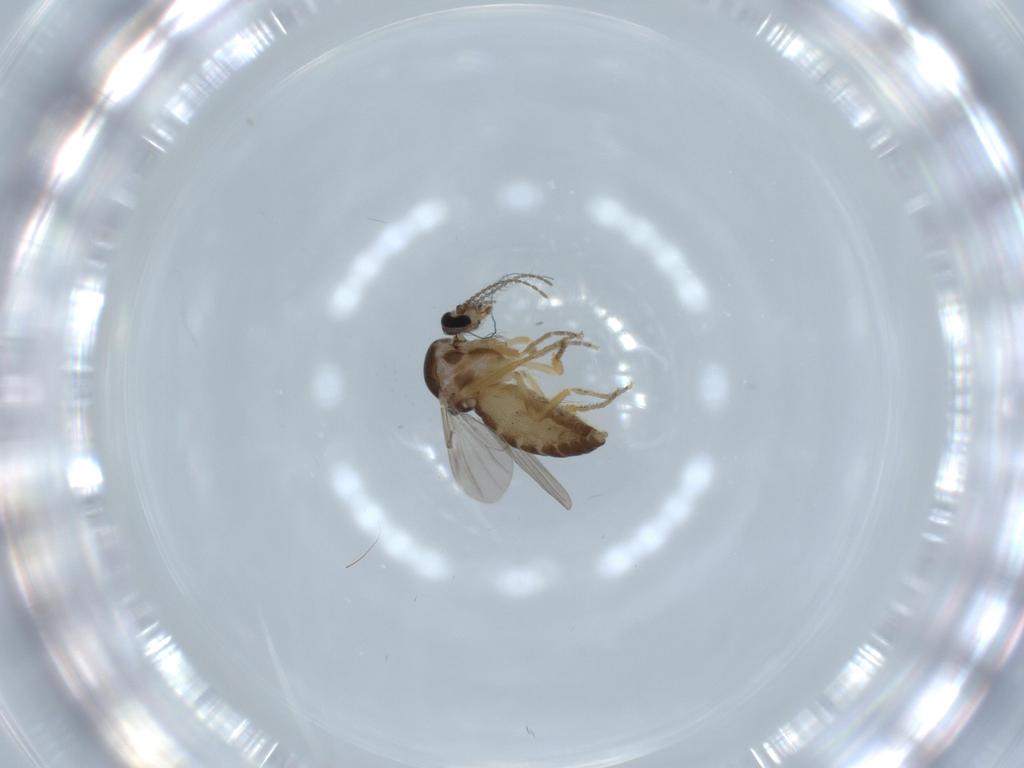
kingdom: Animalia
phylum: Arthropoda
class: Insecta
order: Diptera
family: Ceratopogonidae
